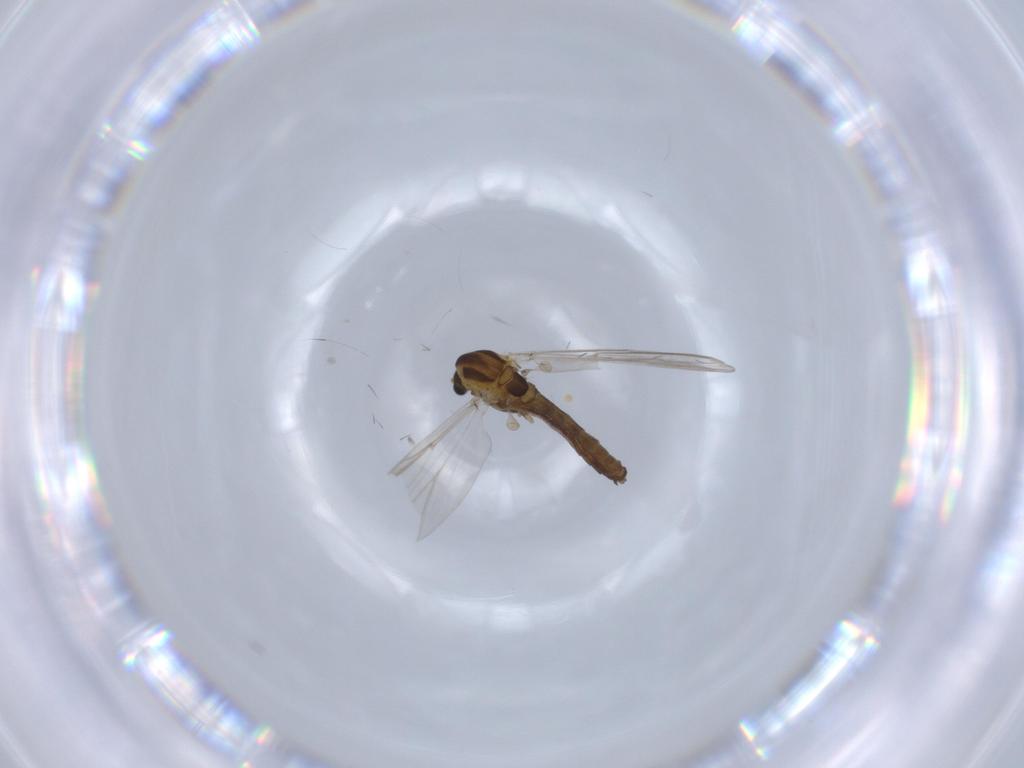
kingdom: Animalia
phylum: Arthropoda
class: Insecta
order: Diptera
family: Chironomidae
